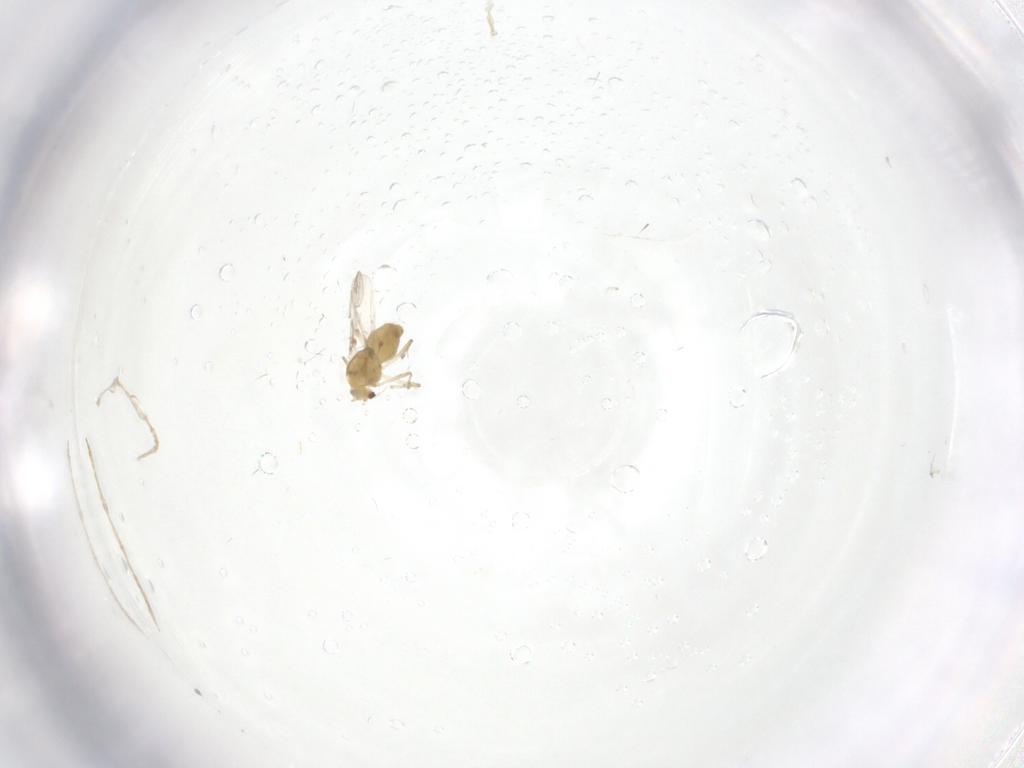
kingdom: Animalia
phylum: Arthropoda
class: Insecta
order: Diptera
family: Chironomidae
